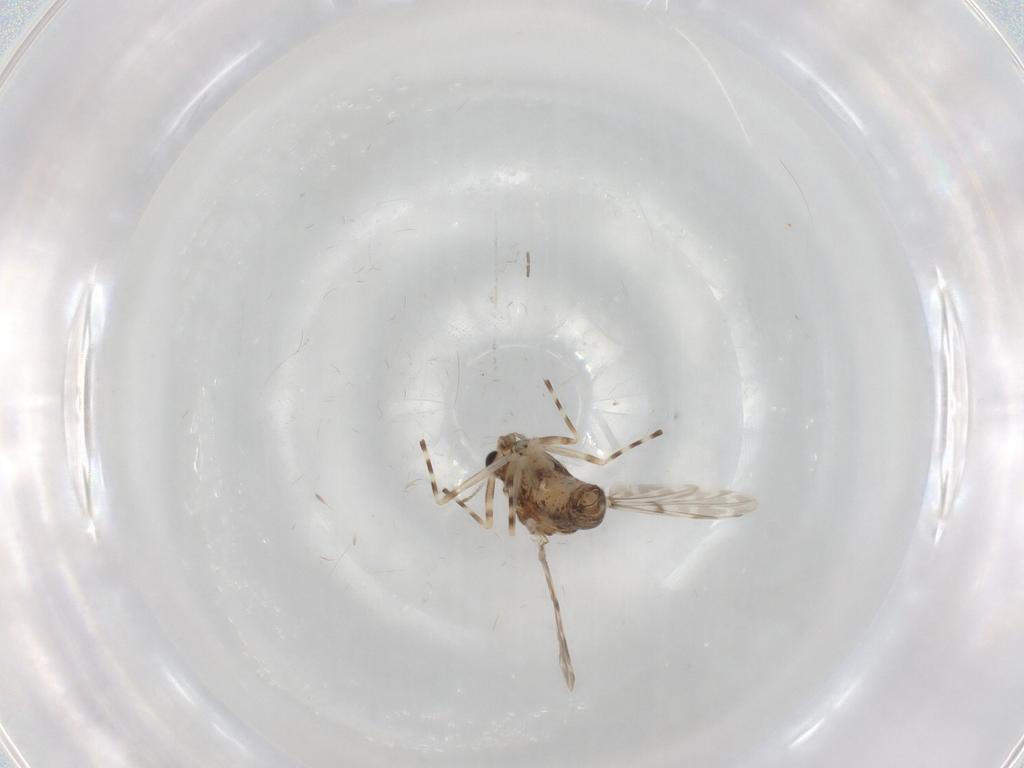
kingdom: Animalia
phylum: Arthropoda
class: Insecta
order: Diptera
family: Chironomidae
